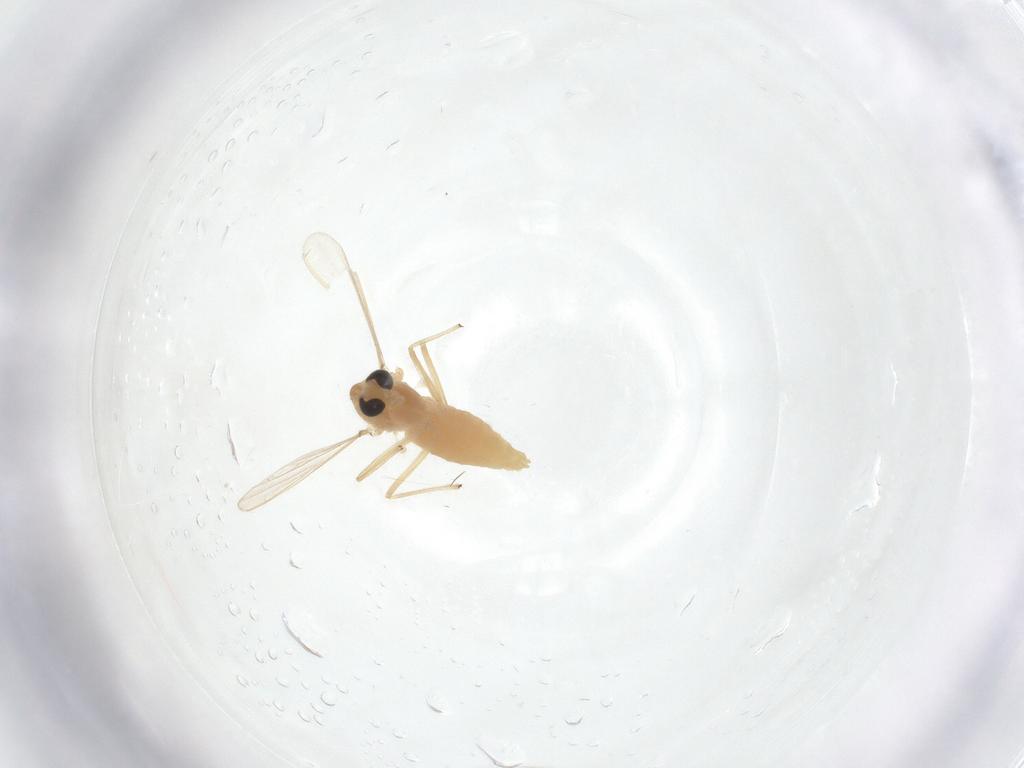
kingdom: Animalia
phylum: Arthropoda
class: Insecta
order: Diptera
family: Chironomidae
